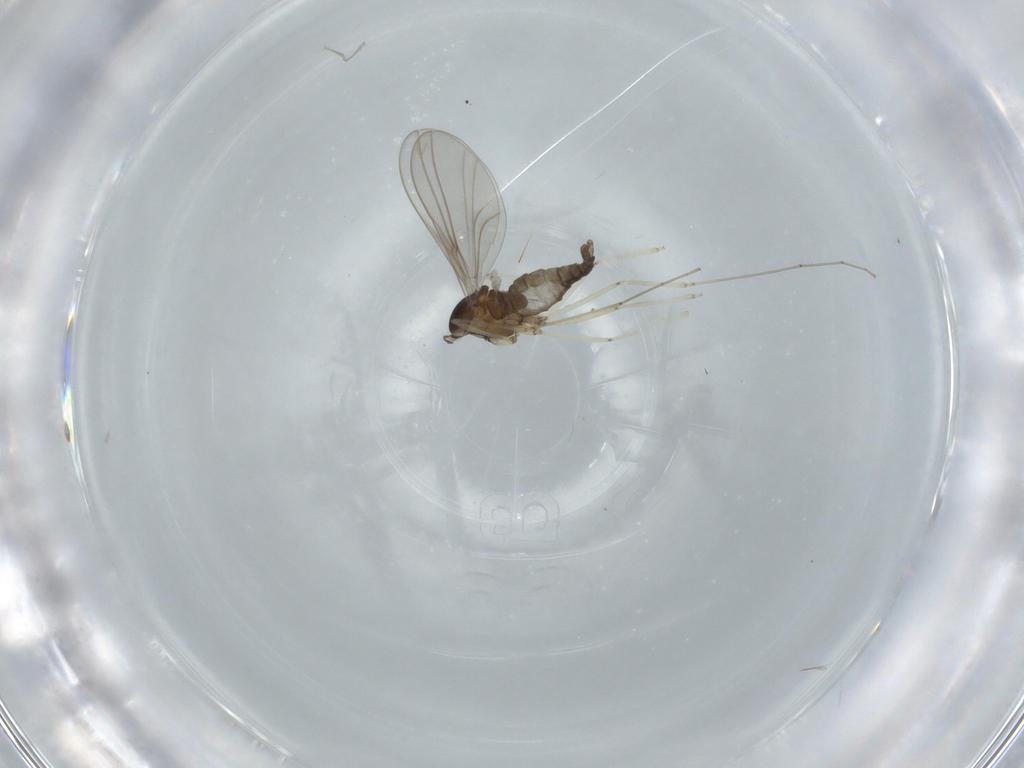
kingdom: Animalia
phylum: Arthropoda
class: Insecta
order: Diptera
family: Cecidomyiidae
